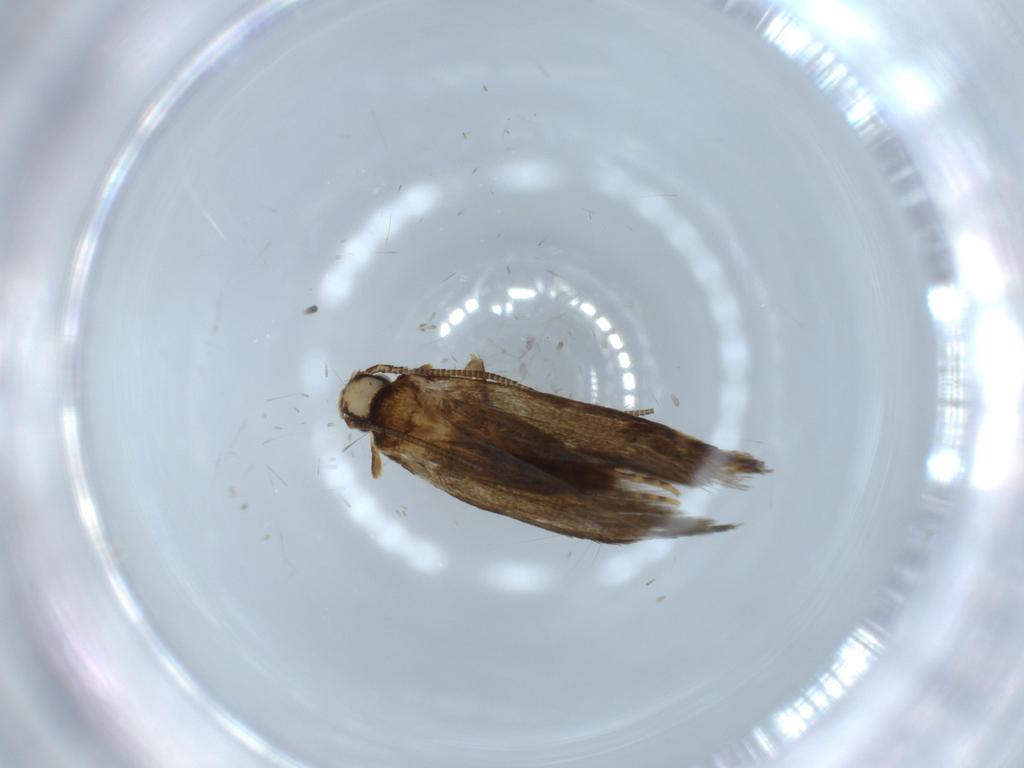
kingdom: Animalia
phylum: Arthropoda
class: Insecta
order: Lepidoptera
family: Tineidae
